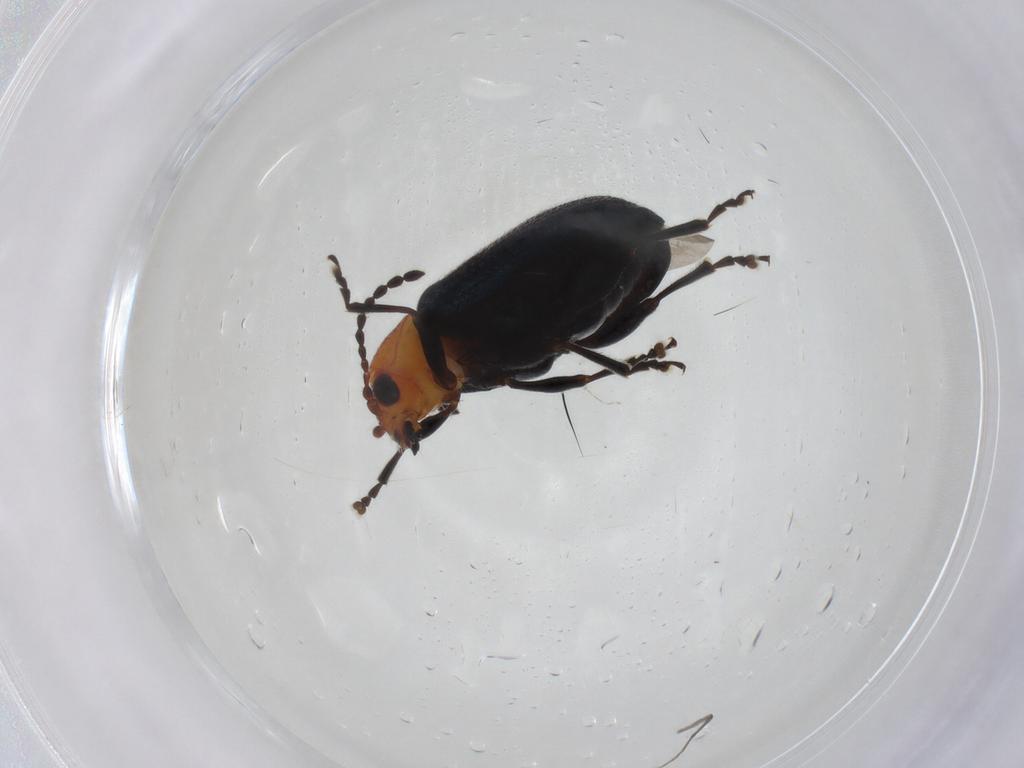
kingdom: Animalia
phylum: Arthropoda
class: Insecta
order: Coleoptera
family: Chrysomelidae
